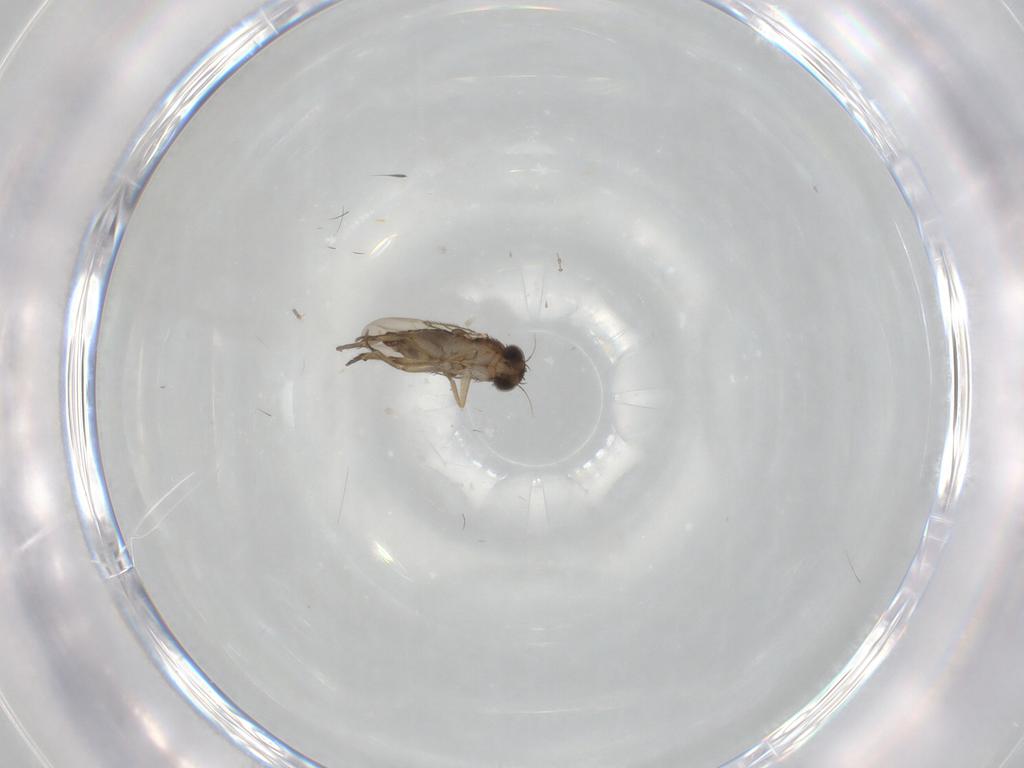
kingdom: Animalia
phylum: Arthropoda
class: Insecta
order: Diptera
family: Phoridae
